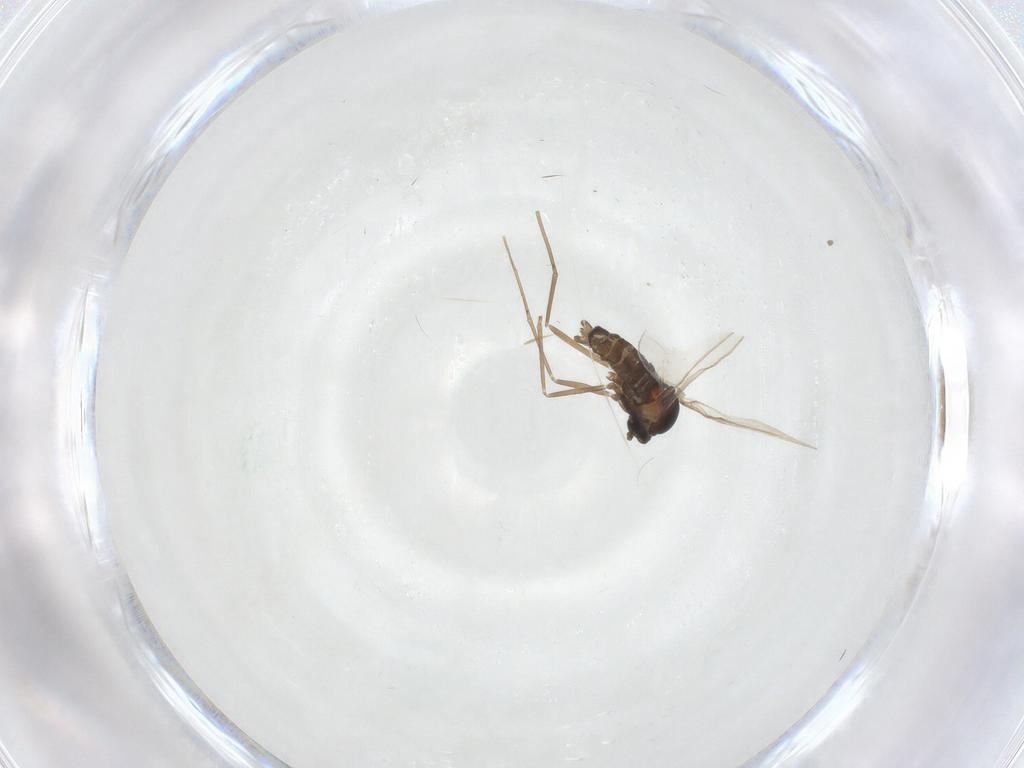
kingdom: Animalia
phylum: Arthropoda
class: Insecta
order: Diptera
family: Cecidomyiidae
